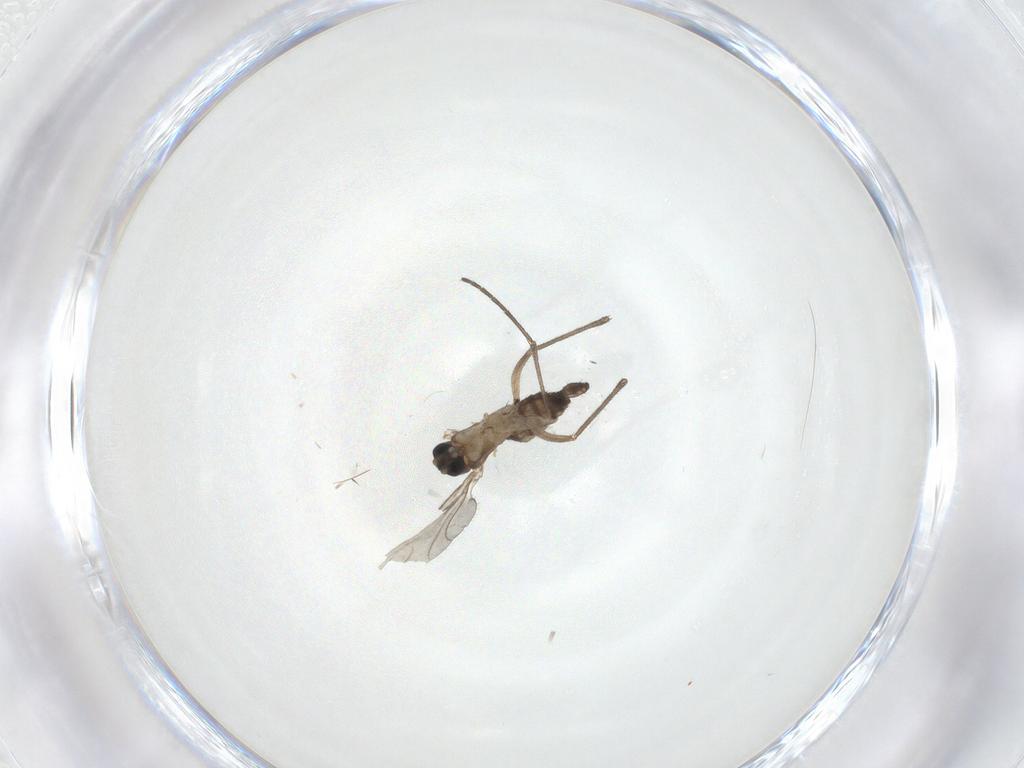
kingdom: Animalia
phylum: Arthropoda
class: Insecta
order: Diptera
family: Sciaridae
